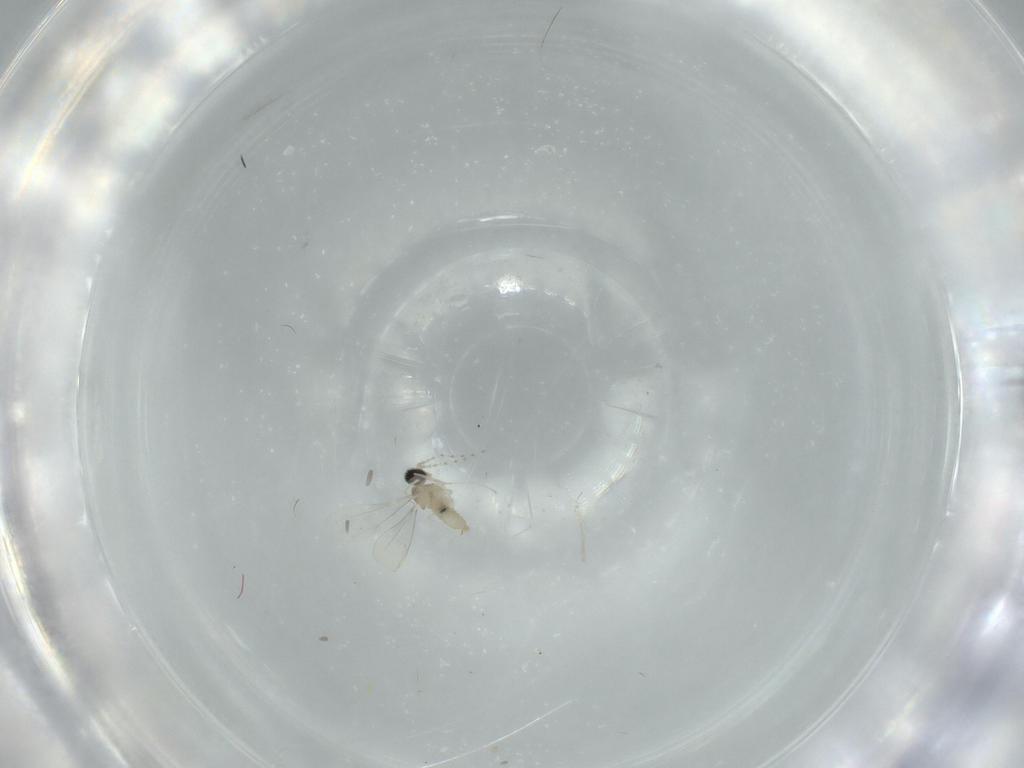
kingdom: Animalia
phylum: Arthropoda
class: Insecta
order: Diptera
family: Cecidomyiidae
